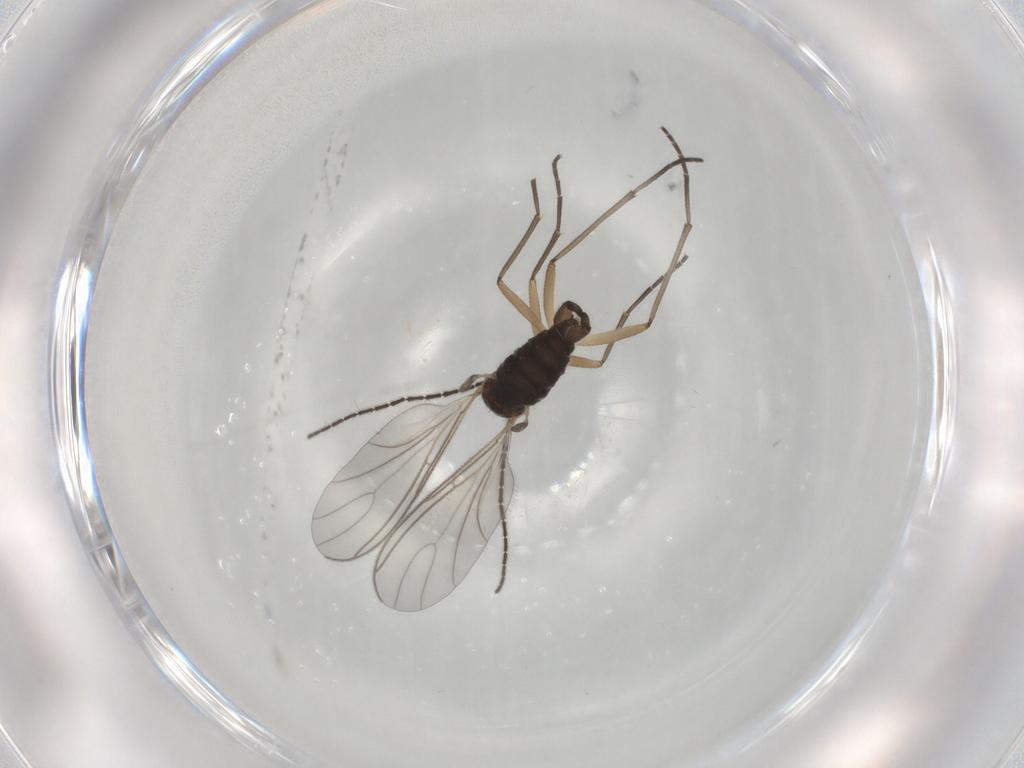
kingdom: Animalia
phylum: Arthropoda
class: Insecta
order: Diptera
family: Sciaridae
